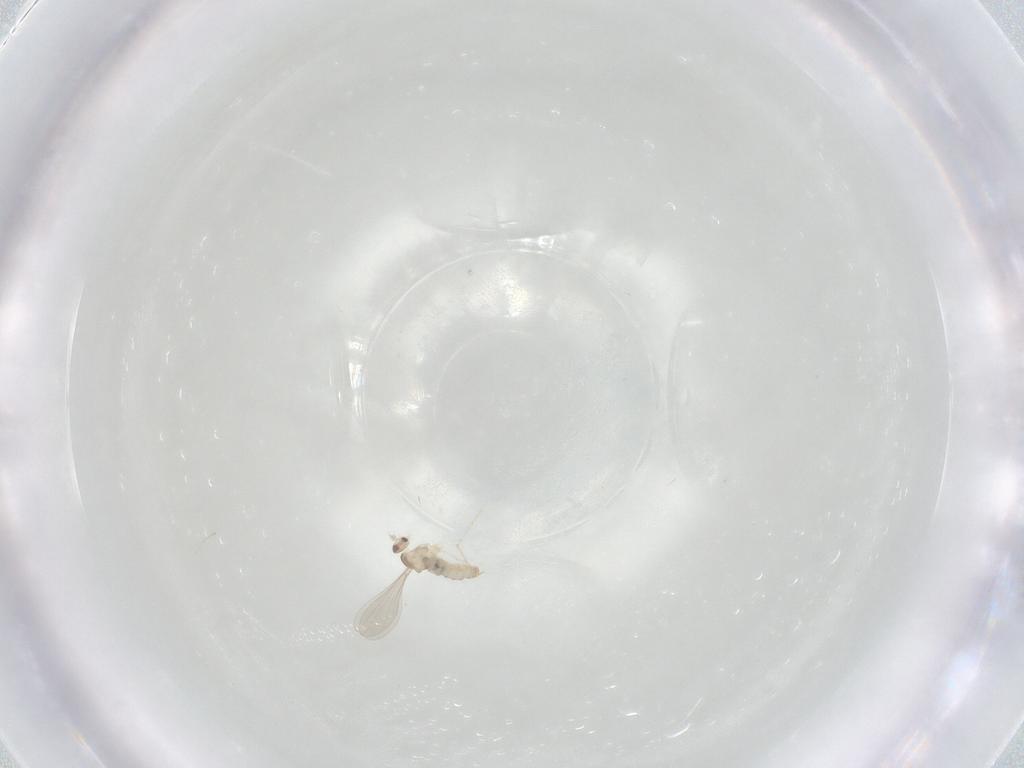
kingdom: Animalia
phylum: Arthropoda
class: Insecta
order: Diptera
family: Cecidomyiidae
